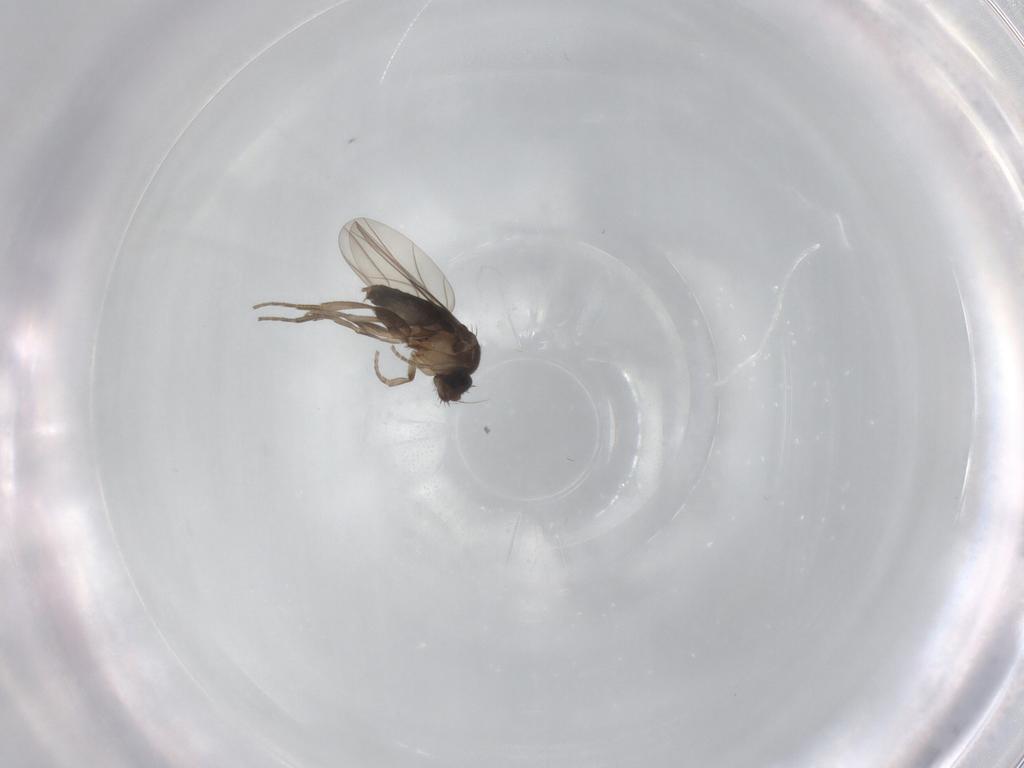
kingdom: Animalia
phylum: Arthropoda
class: Insecta
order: Diptera
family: Phoridae
